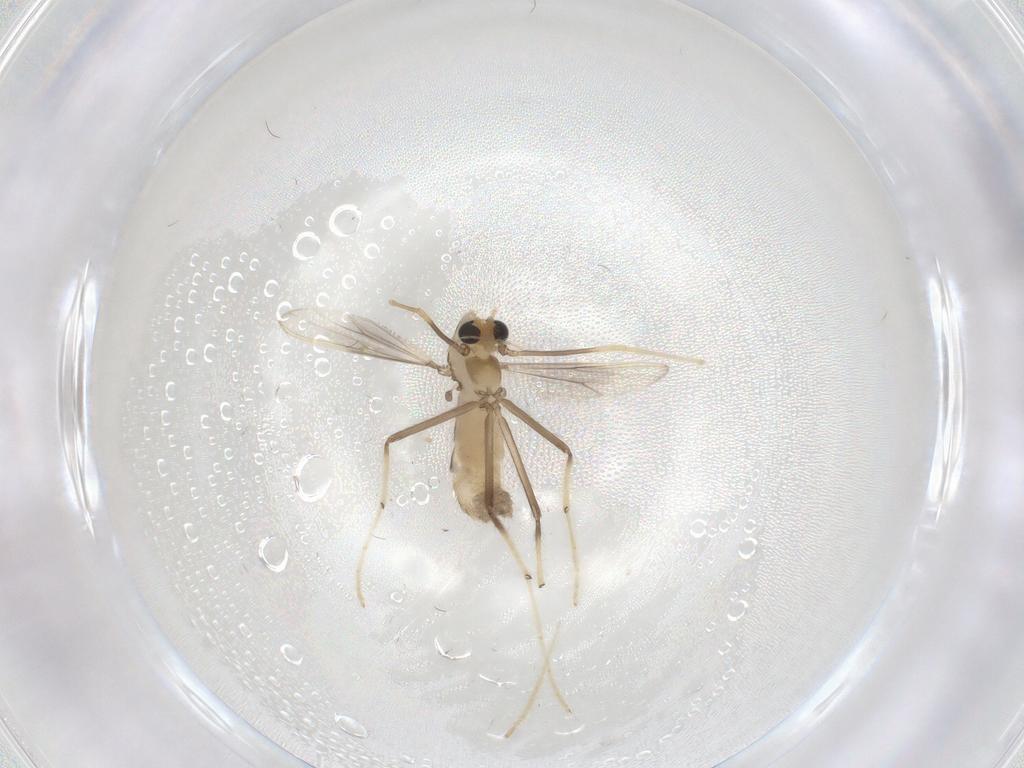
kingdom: Animalia
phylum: Arthropoda
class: Insecta
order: Diptera
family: Chironomidae
